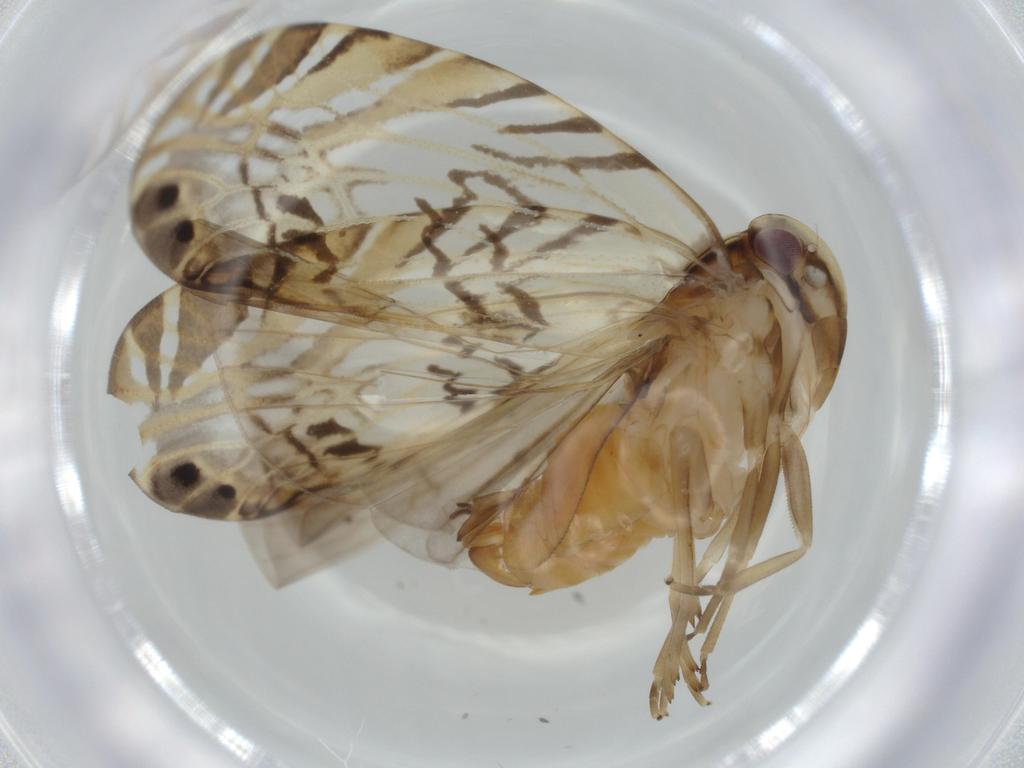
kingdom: Animalia
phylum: Arthropoda
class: Insecta
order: Hemiptera
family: Cixiidae
